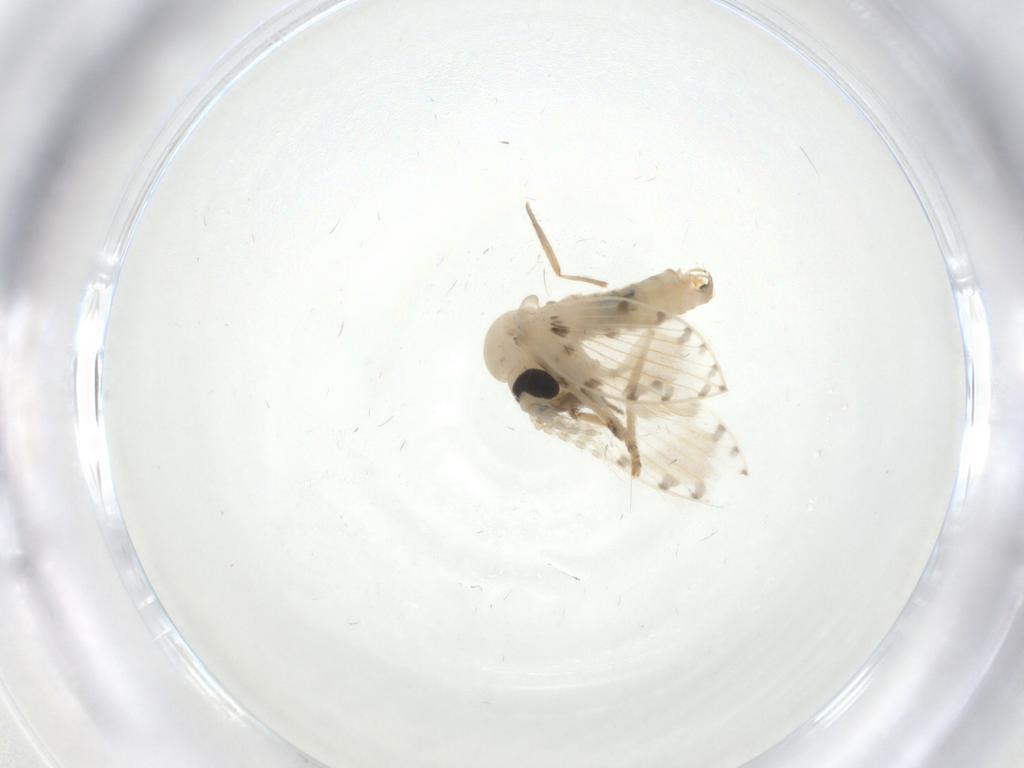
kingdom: Animalia
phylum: Arthropoda
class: Insecta
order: Diptera
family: Psychodidae
